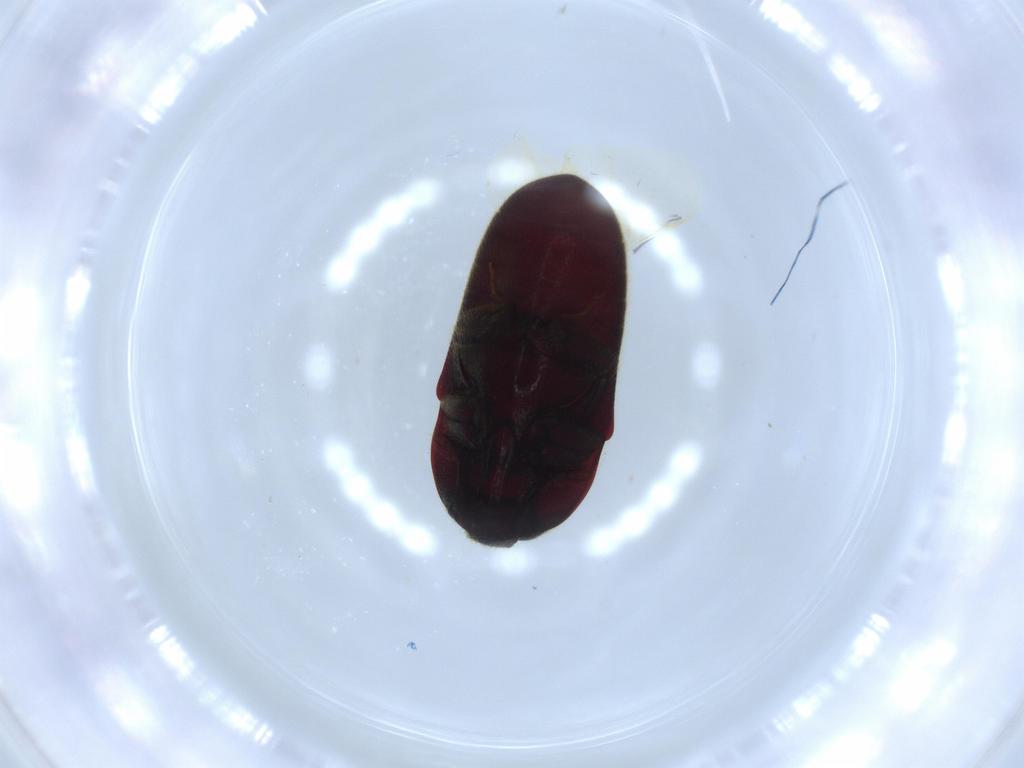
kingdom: Animalia
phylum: Arthropoda
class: Insecta
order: Coleoptera
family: Throscidae
